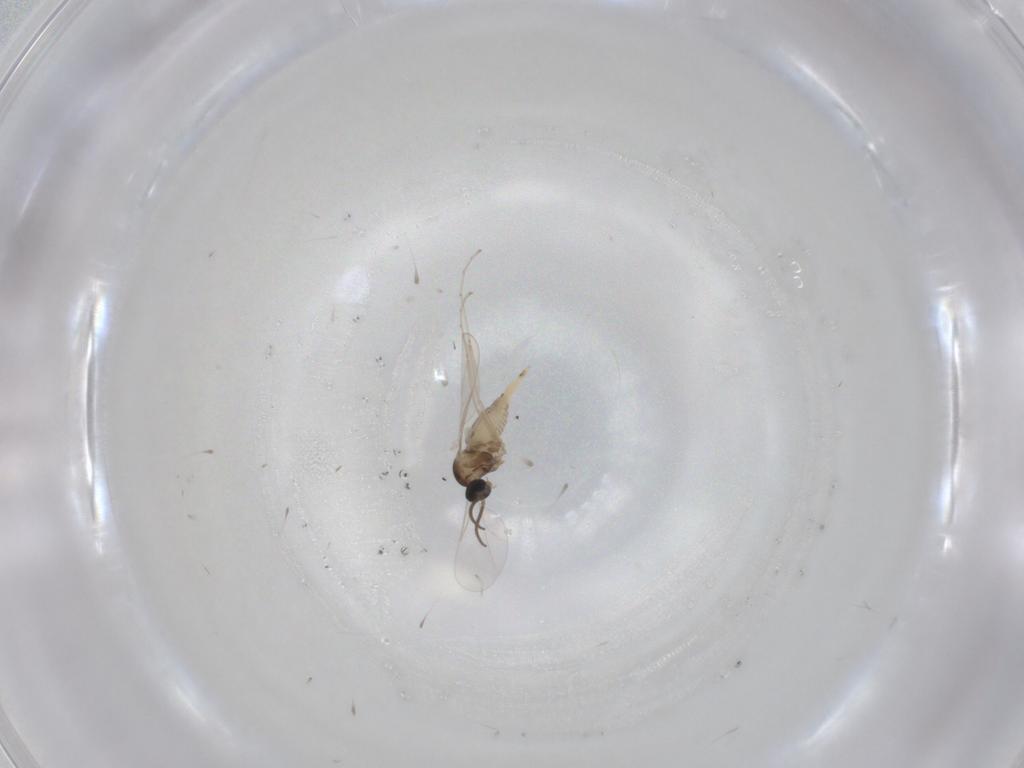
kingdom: Animalia
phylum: Arthropoda
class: Insecta
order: Diptera
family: Cecidomyiidae
